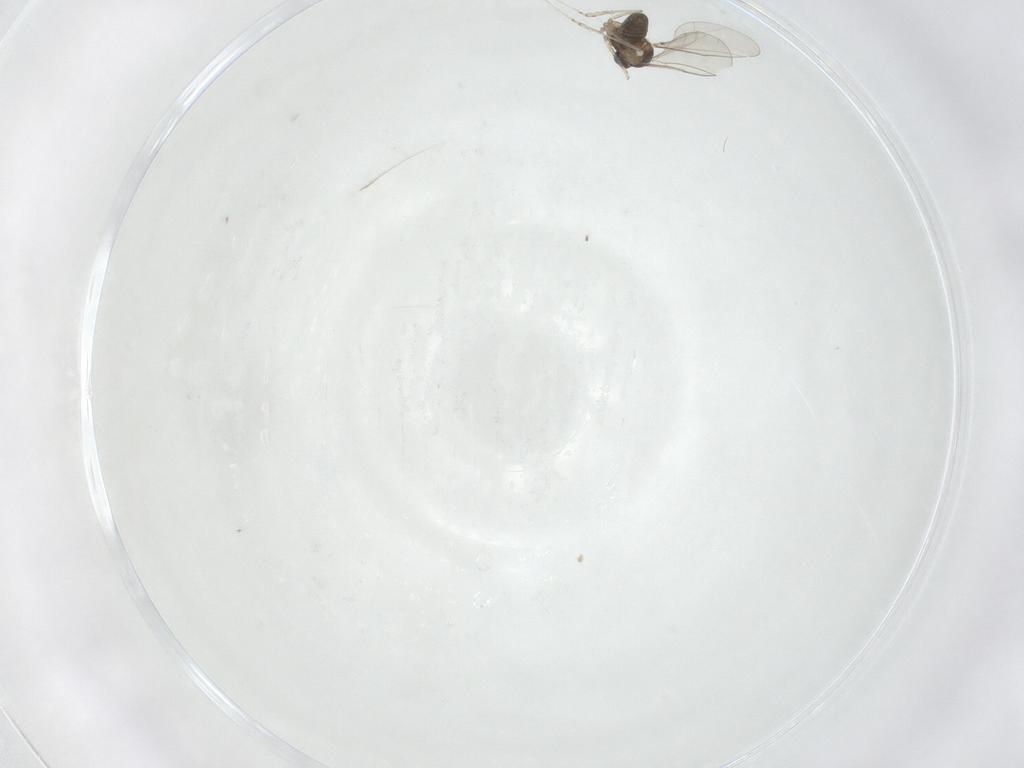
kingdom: Animalia
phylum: Arthropoda
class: Insecta
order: Diptera
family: Cecidomyiidae
